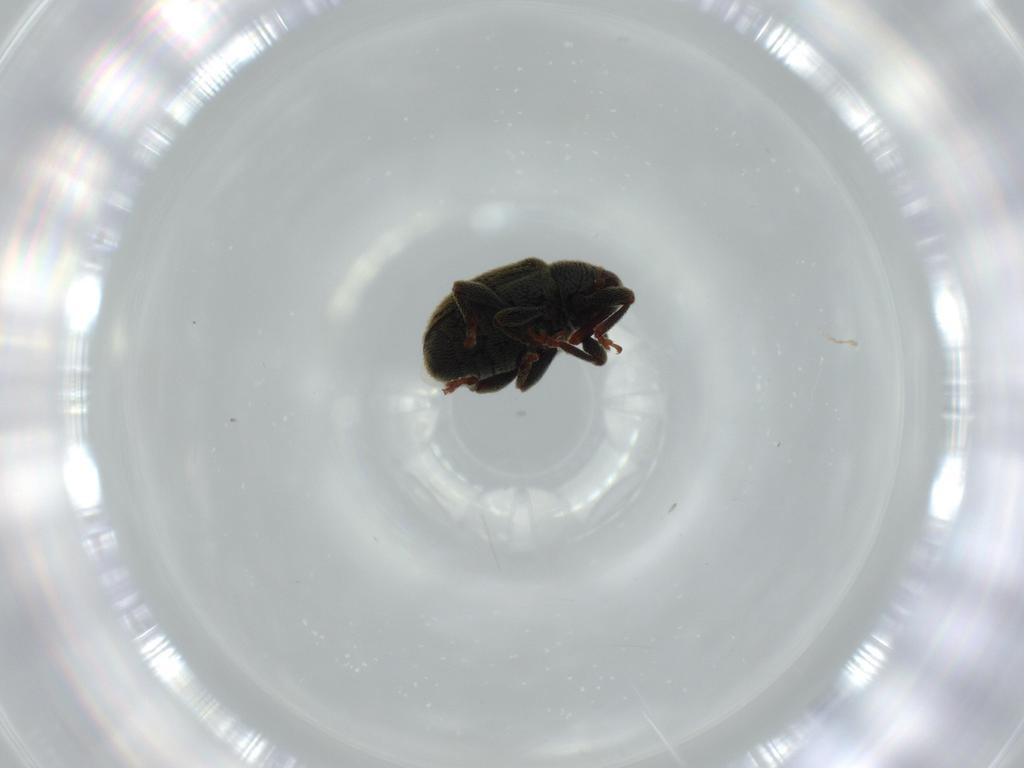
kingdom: Animalia
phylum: Arthropoda
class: Insecta
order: Coleoptera
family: Curculionidae
